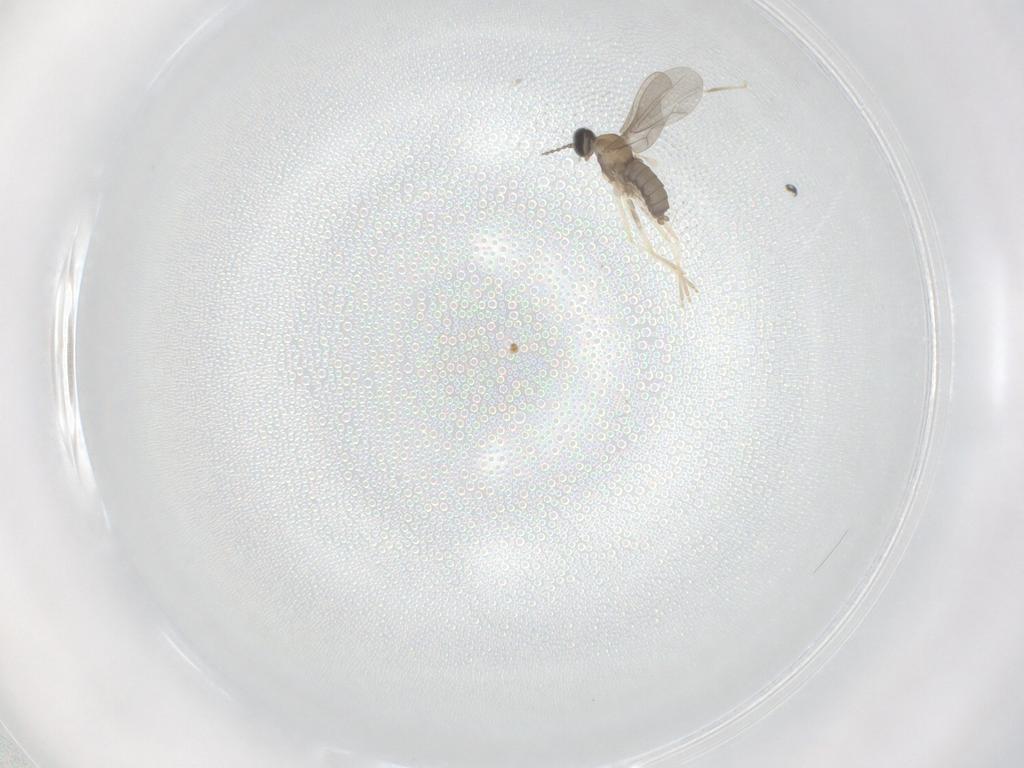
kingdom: Animalia
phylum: Arthropoda
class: Insecta
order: Diptera
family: Cecidomyiidae
